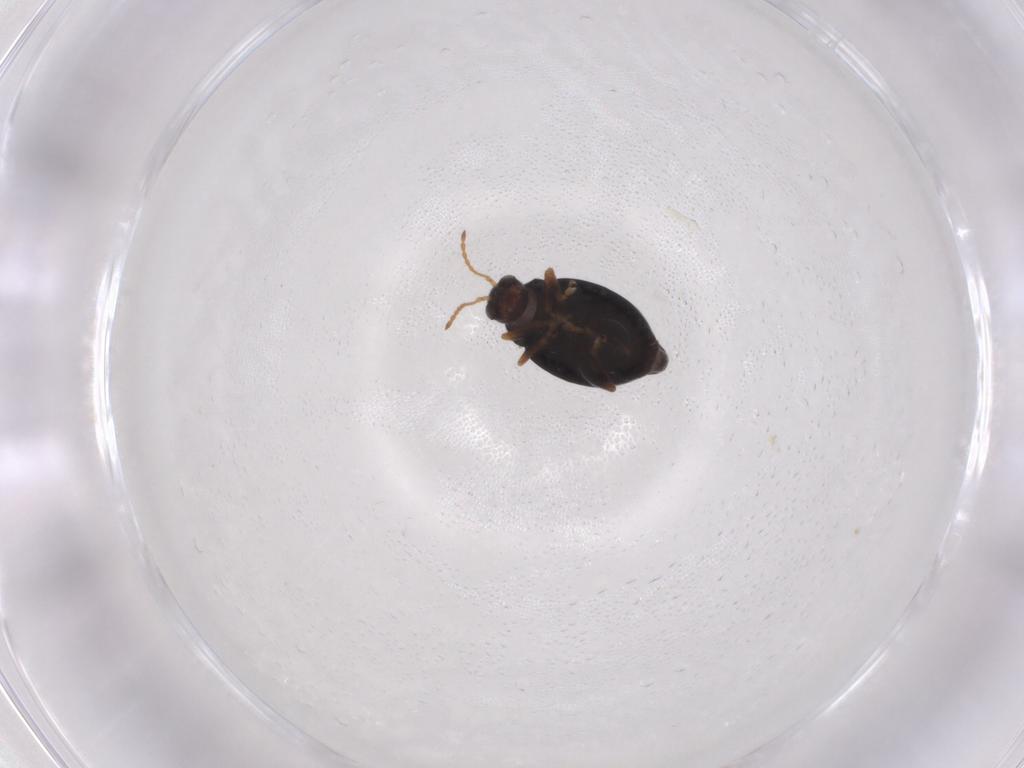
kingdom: Animalia
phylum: Arthropoda
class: Insecta
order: Coleoptera
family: Chrysomelidae
